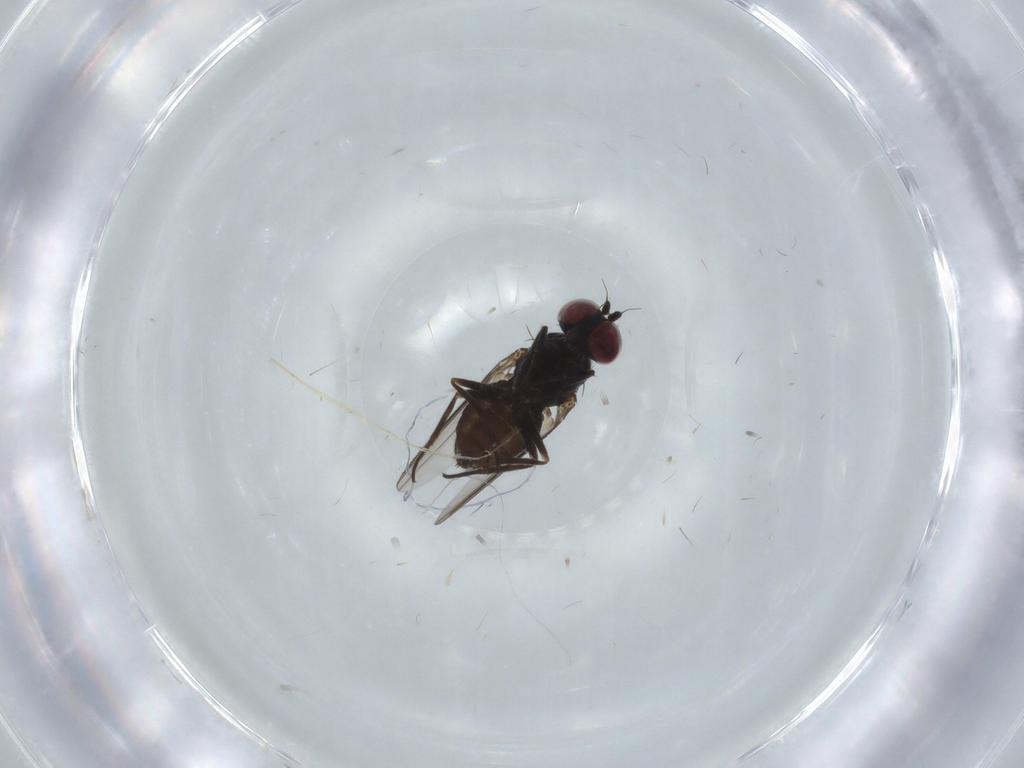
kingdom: Animalia
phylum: Arthropoda
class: Insecta
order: Diptera
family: Dolichopodidae
